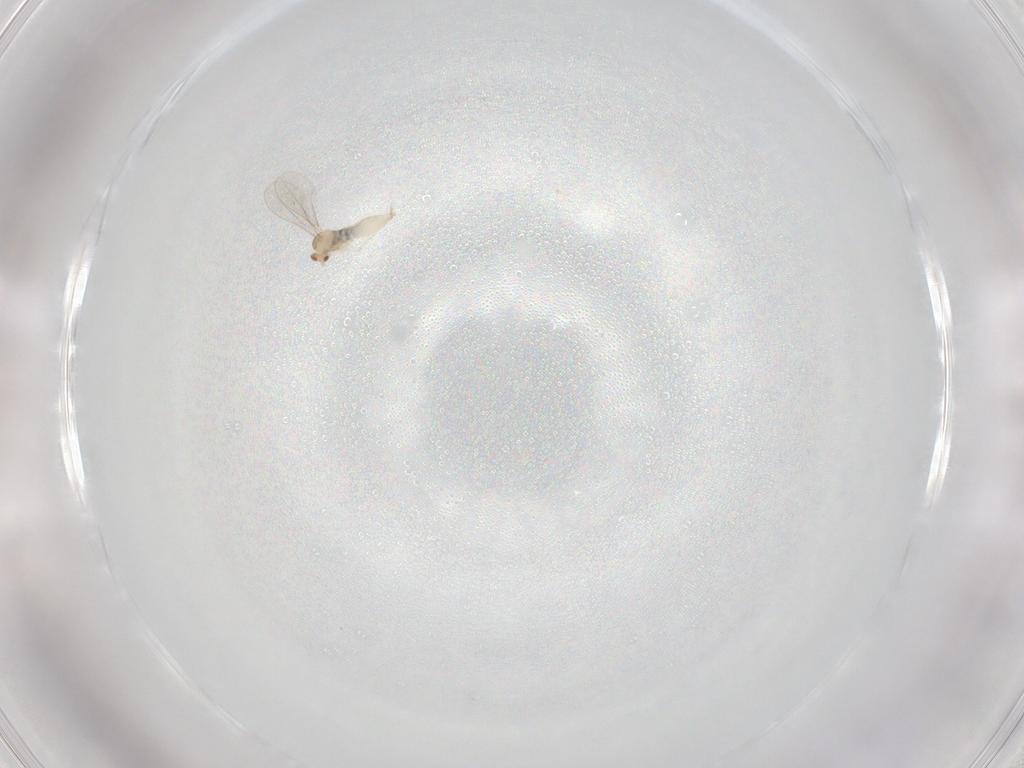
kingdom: Animalia
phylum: Arthropoda
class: Insecta
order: Diptera
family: Cecidomyiidae
